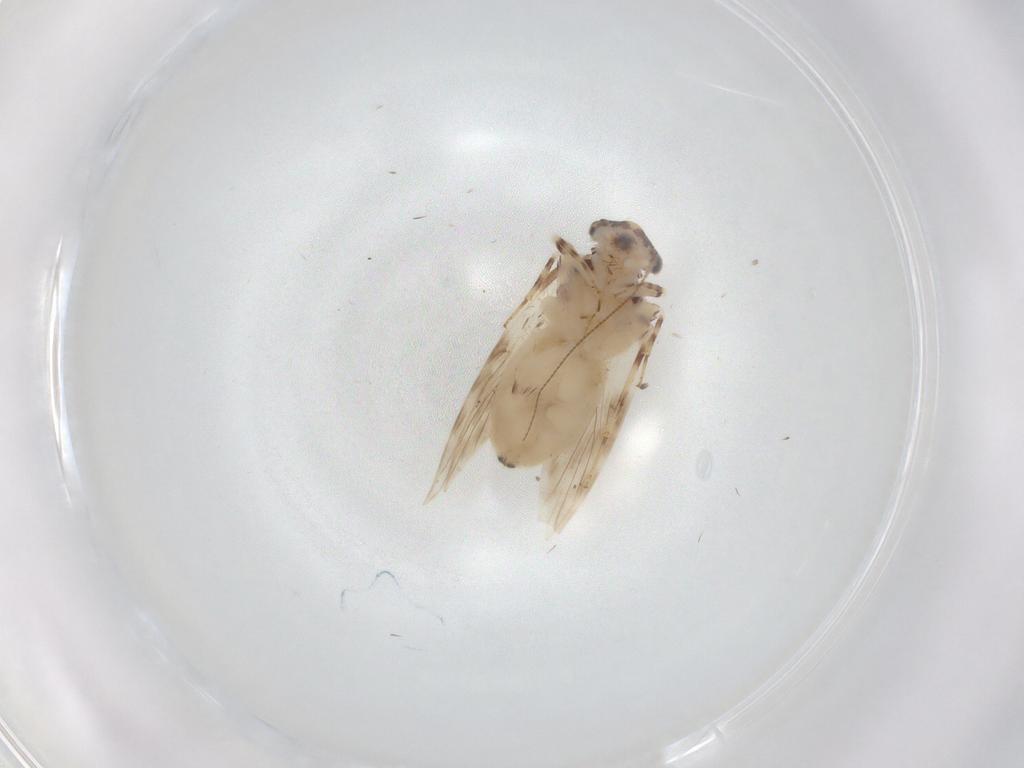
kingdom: Animalia
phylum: Arthropoda
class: Insecta
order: Psocodea
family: Lepidopsocidae
